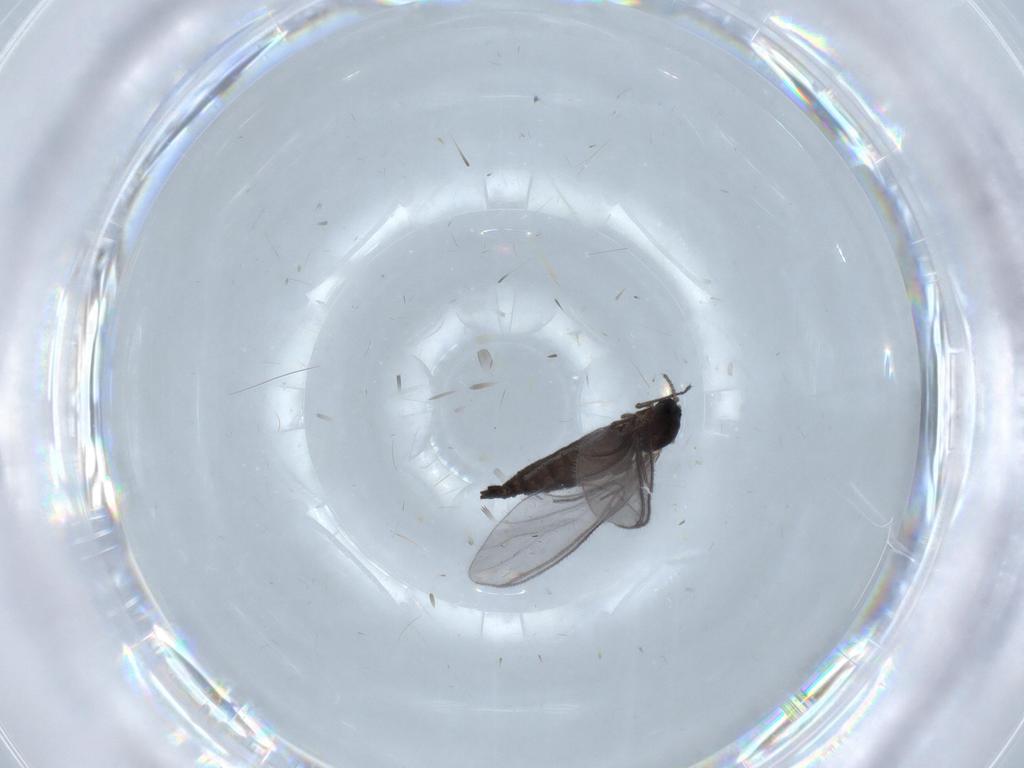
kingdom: Animalia
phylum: Arthropoda
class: Insecta
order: Diptera
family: Sciaridae
